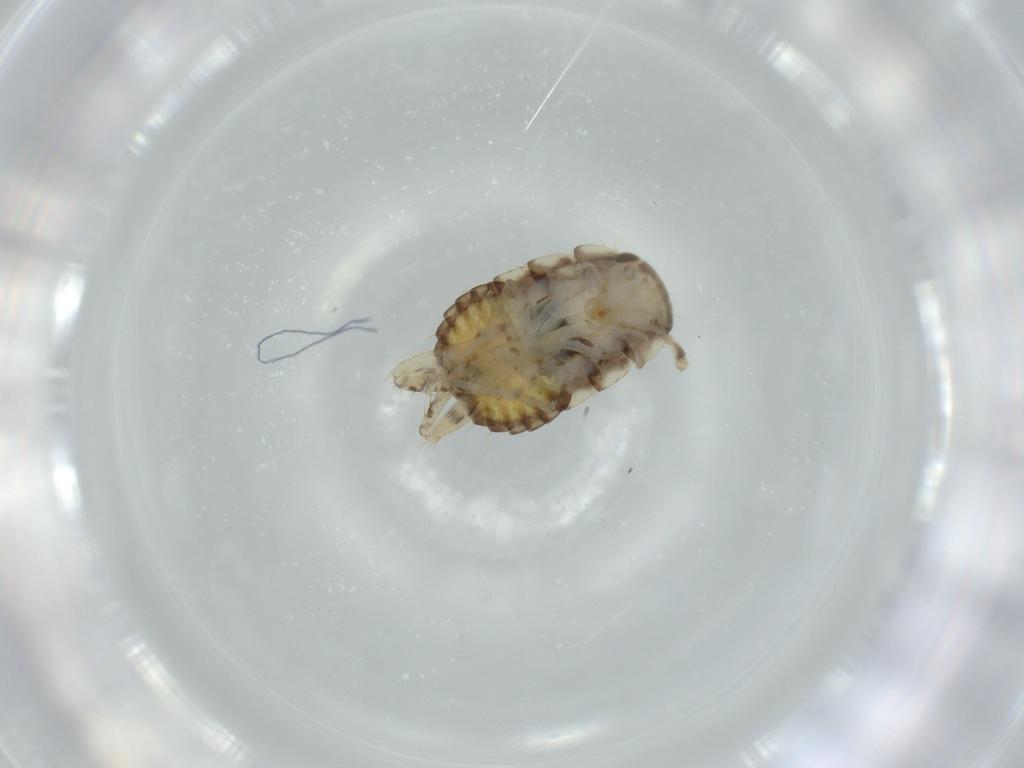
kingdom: Animalia
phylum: Arthropoda
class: Insecta
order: Blattodea
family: Ectobiidae
